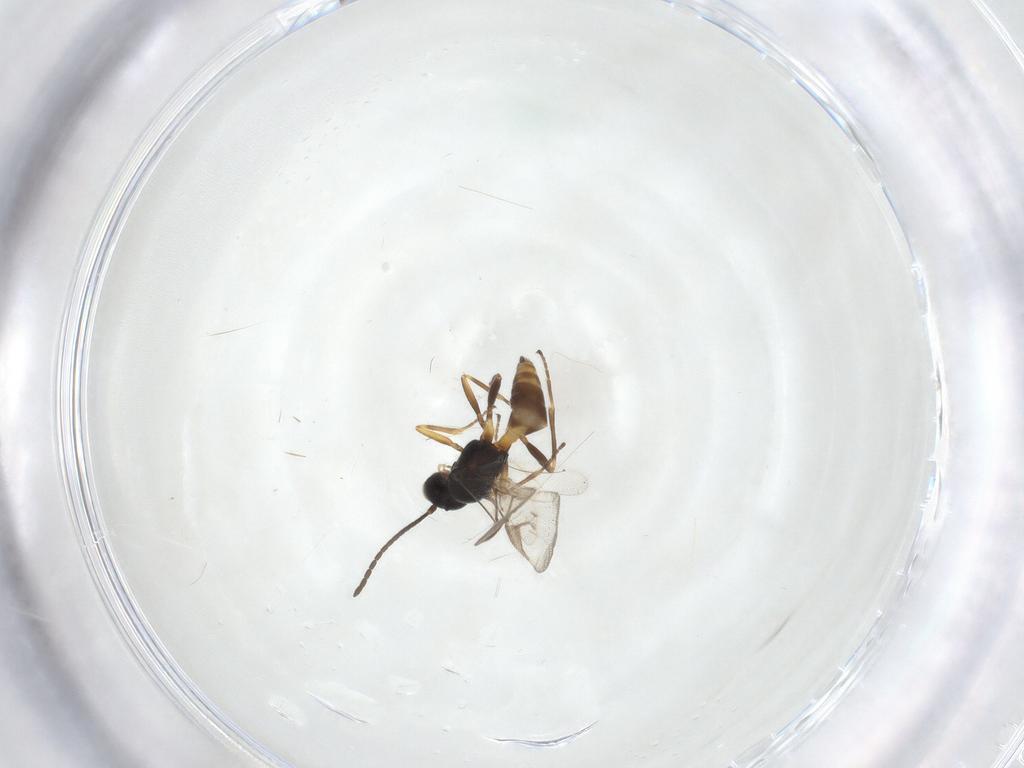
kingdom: Animalia
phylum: Arthropoda
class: Insecta
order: Hymenoptera
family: Braconidae
